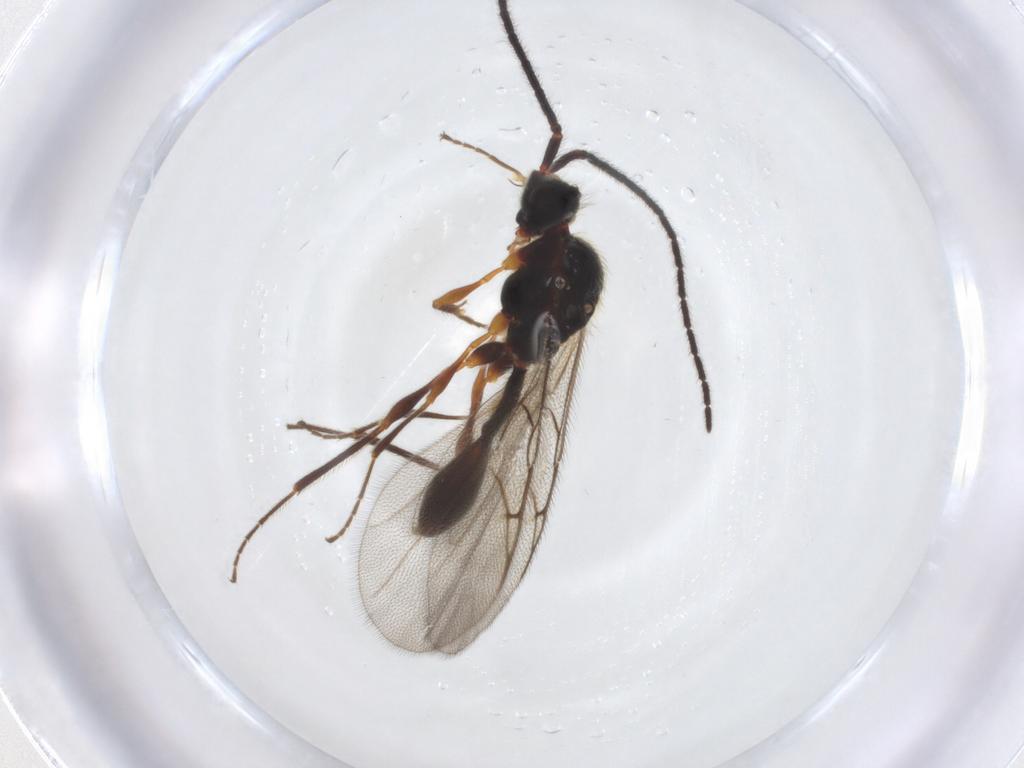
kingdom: Animalia
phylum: Arthropoda
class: Insecta
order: Hymenoptera
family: Diapriidae
